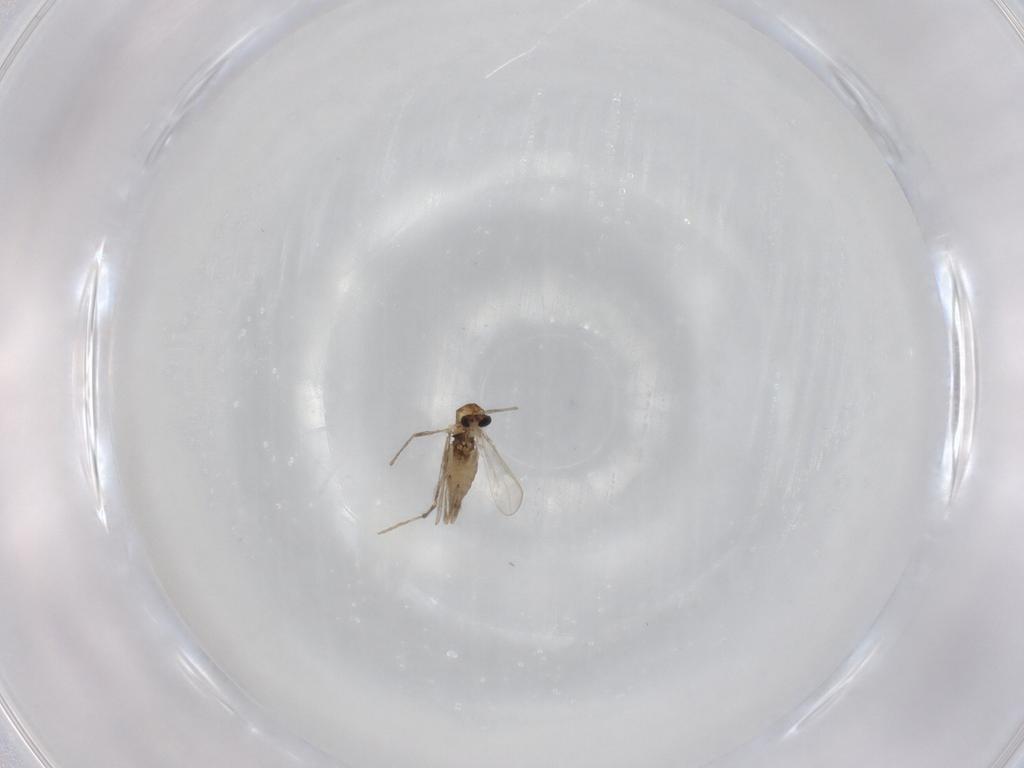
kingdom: Animalia
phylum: Arthropoda
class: Insecta
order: Diptera
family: Chironomidae
